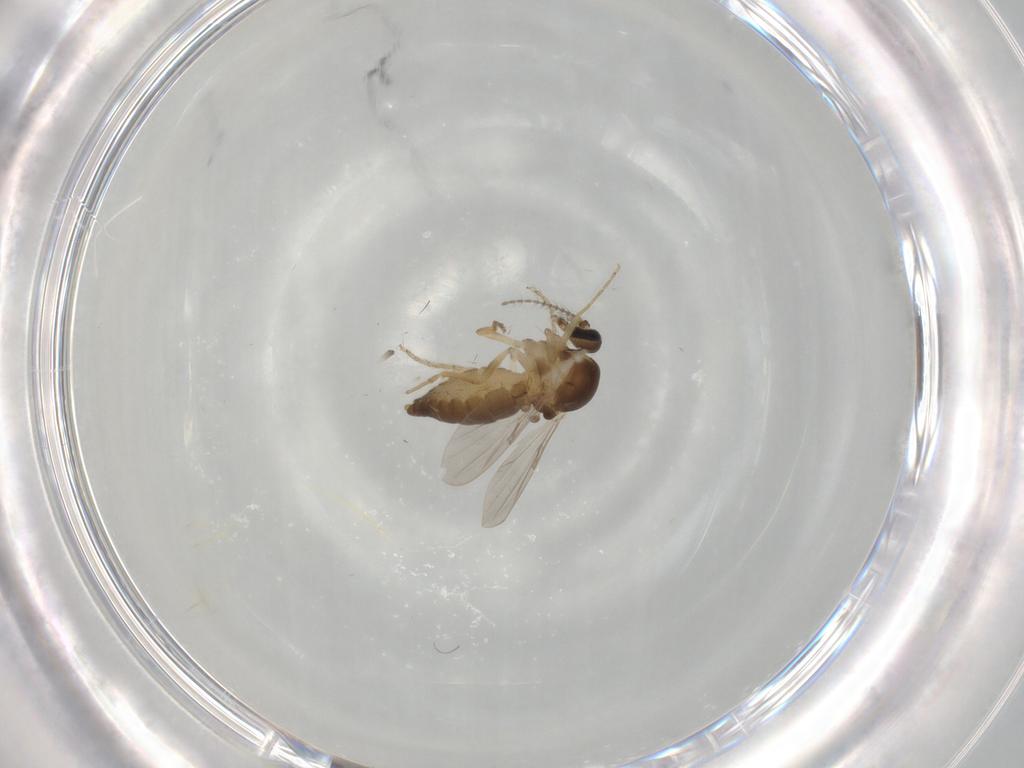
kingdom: Animalia
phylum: Arthropoda
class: Insecta
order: Diptera
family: Ceratopogonidae
